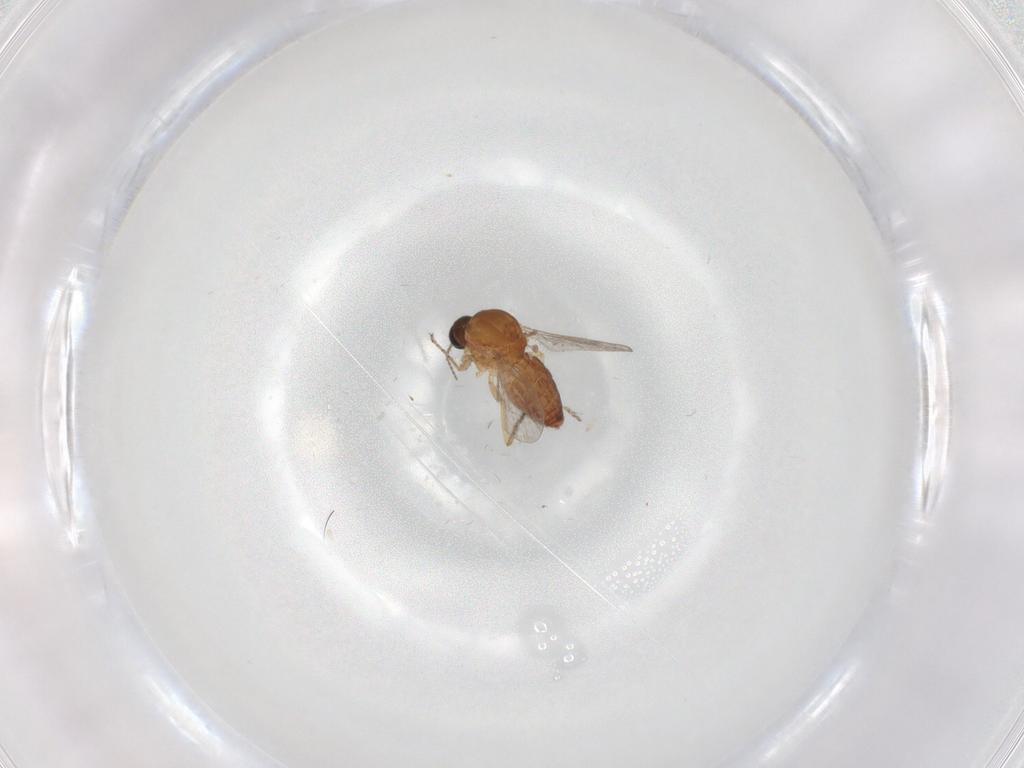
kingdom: Animalia
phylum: Arthropoda
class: Insecta
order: Diptera
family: Ceratopogonidae
